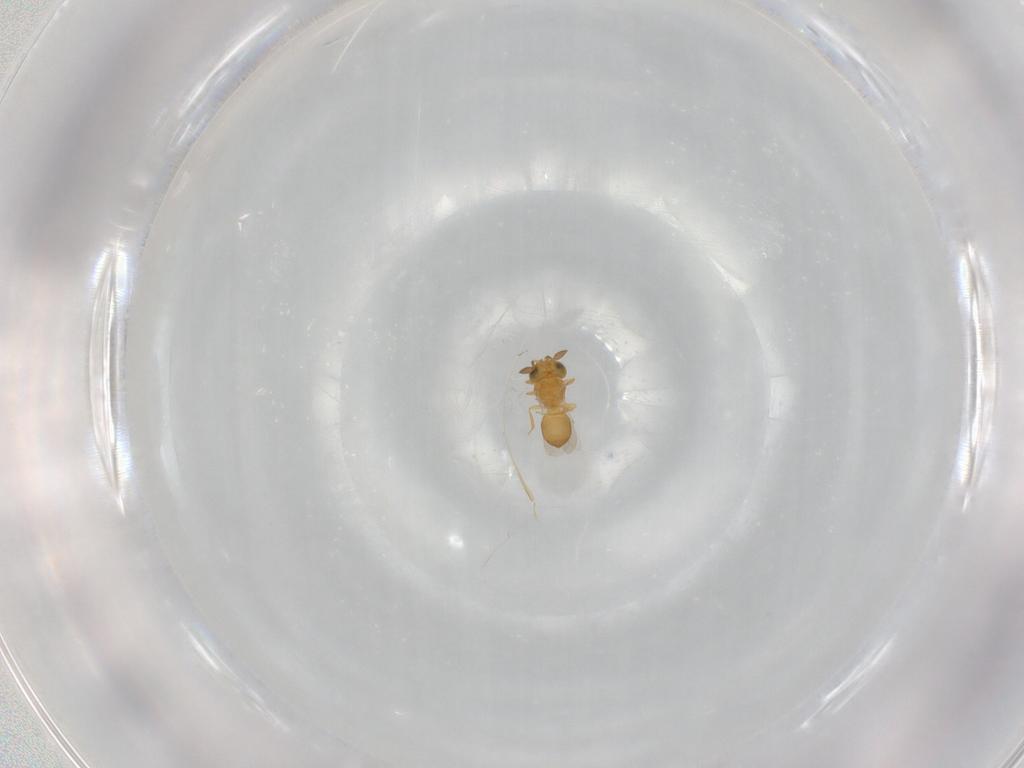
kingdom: Animalia
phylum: Arthropoda
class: Insecta
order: Hymenoptera
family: Scelionidae
